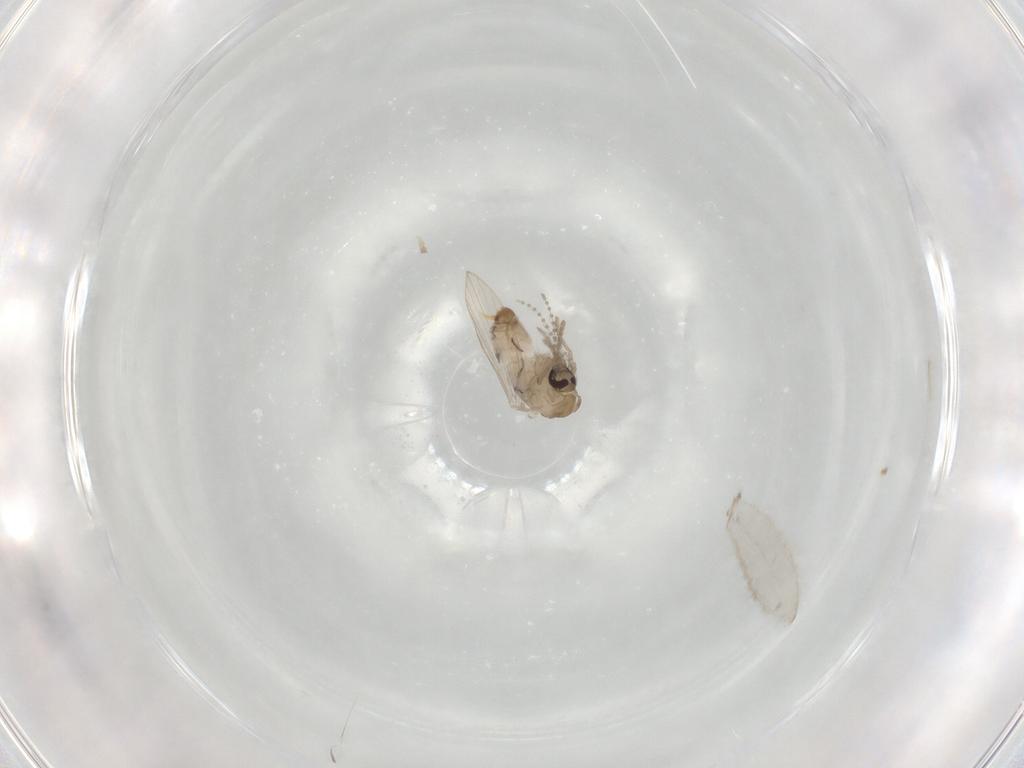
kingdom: Animalia
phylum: Arthropoda
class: Insecta
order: Diptera
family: Psychodidae
